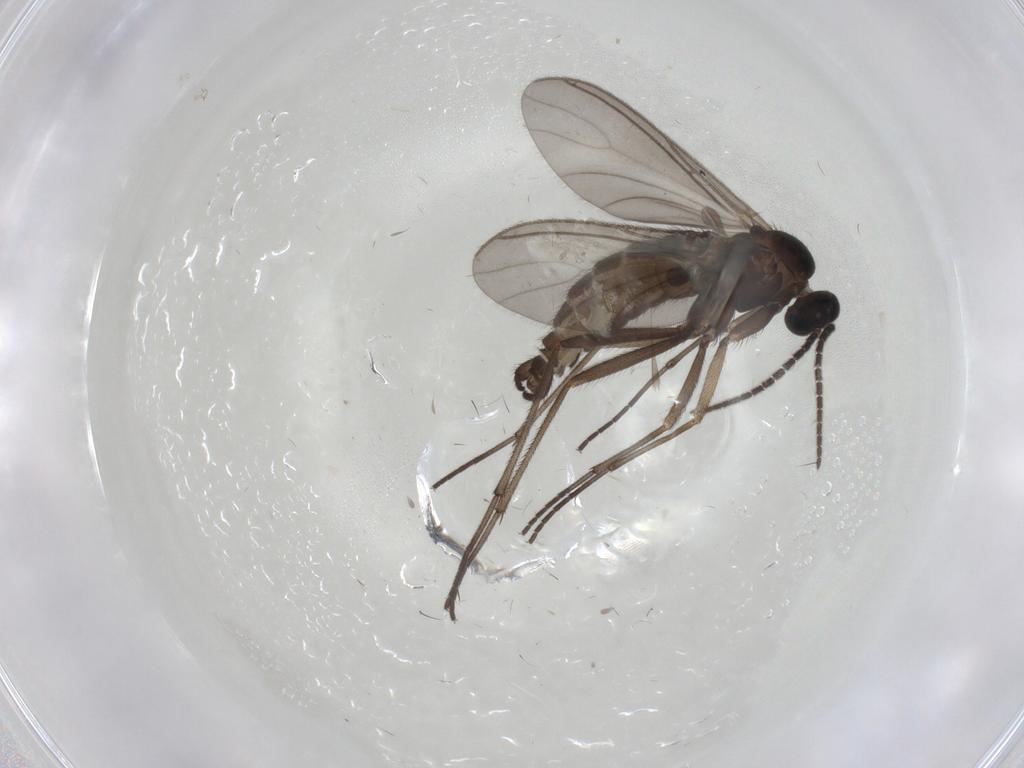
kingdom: Animalia
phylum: Arthropoda
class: Insecta
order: Diptera
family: Sciaridae
